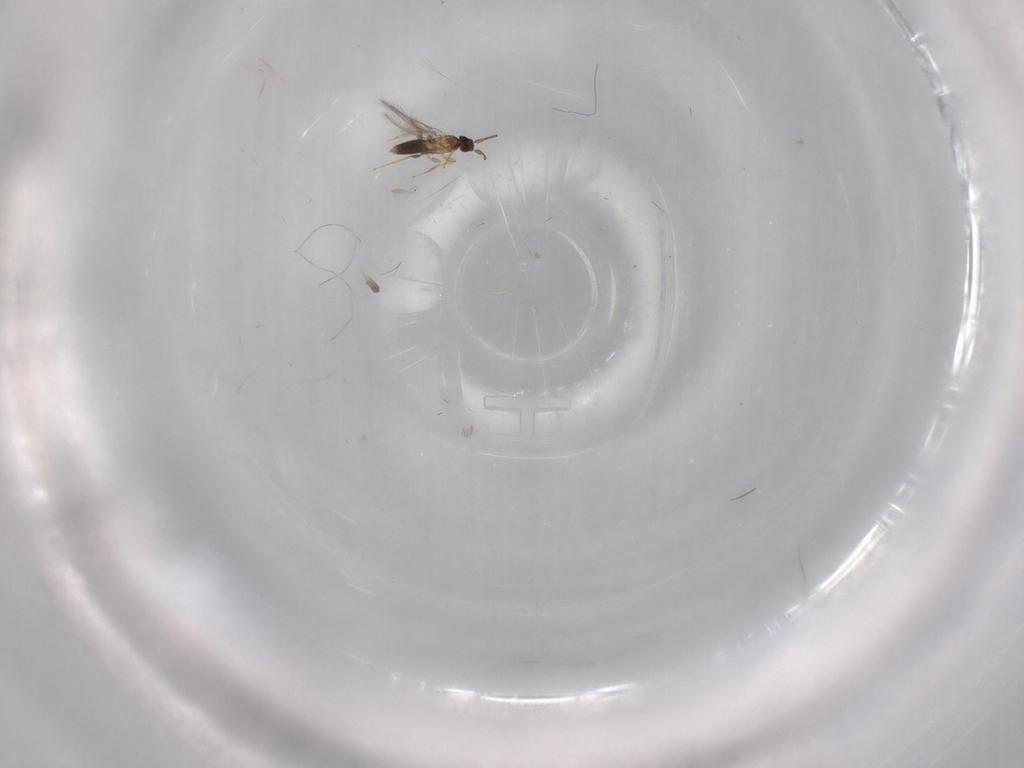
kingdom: Animalia
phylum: Arthropoda
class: Insecta
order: Hymenoptera
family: Mymaridae
